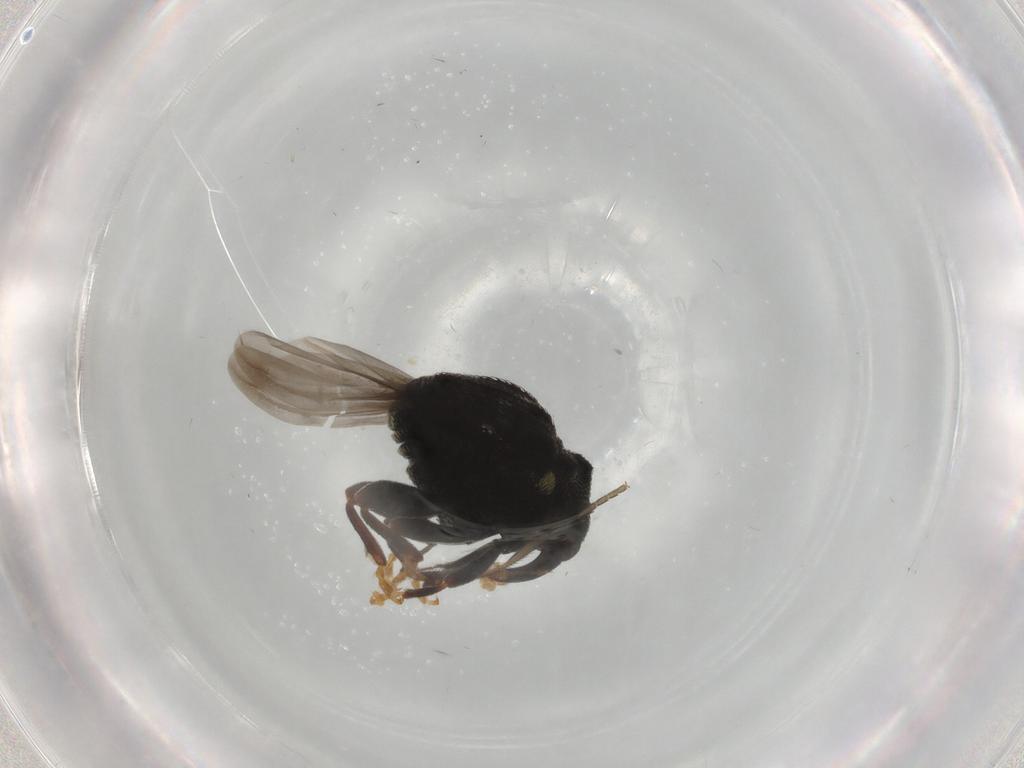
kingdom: Animalia
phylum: Arthropoda
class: Insecta
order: Coleoptera
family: Curculionidae
